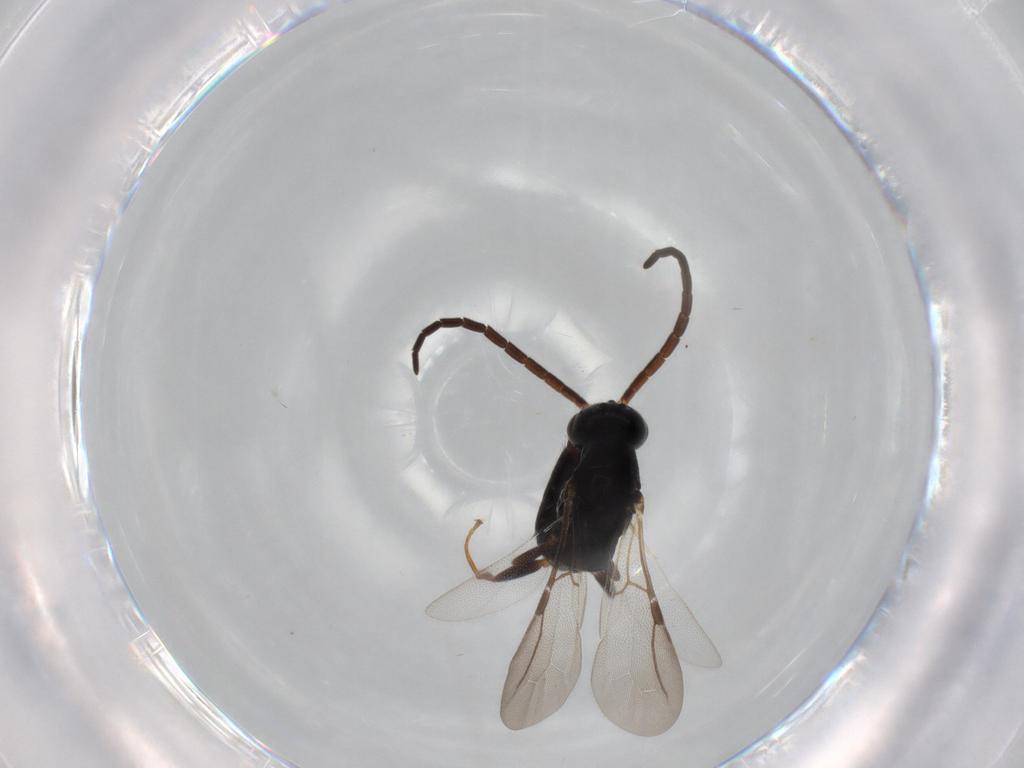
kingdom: Animalia
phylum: Arthropoda
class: Insecta
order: Hymenoptera
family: Bethylidae
